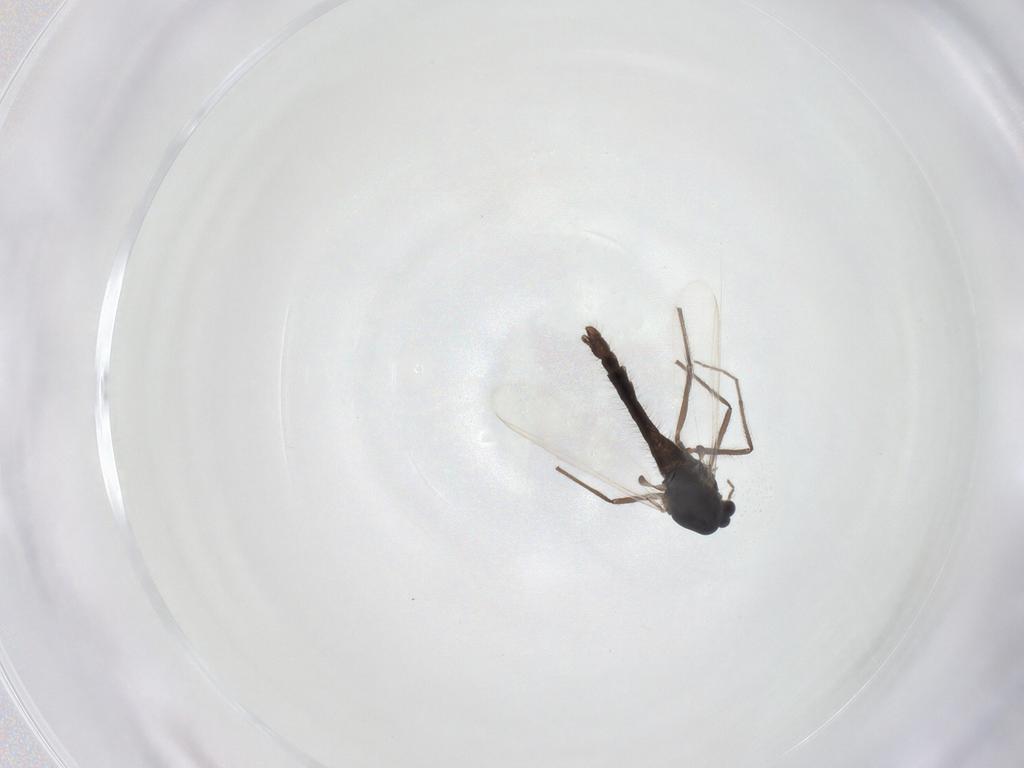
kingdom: Animalia
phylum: Arthropoda
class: Insecta
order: Diptera
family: Chironomidae
